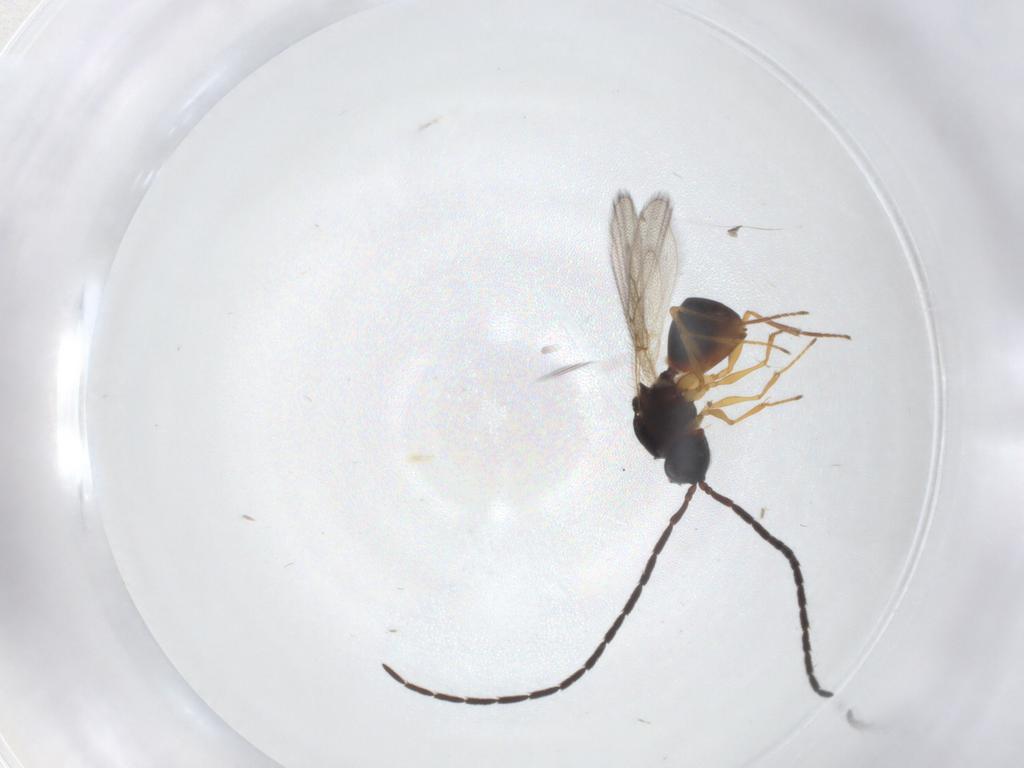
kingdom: Animalia
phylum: Arthropoda
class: Insecta
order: Hymenoptera
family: Figitidae
